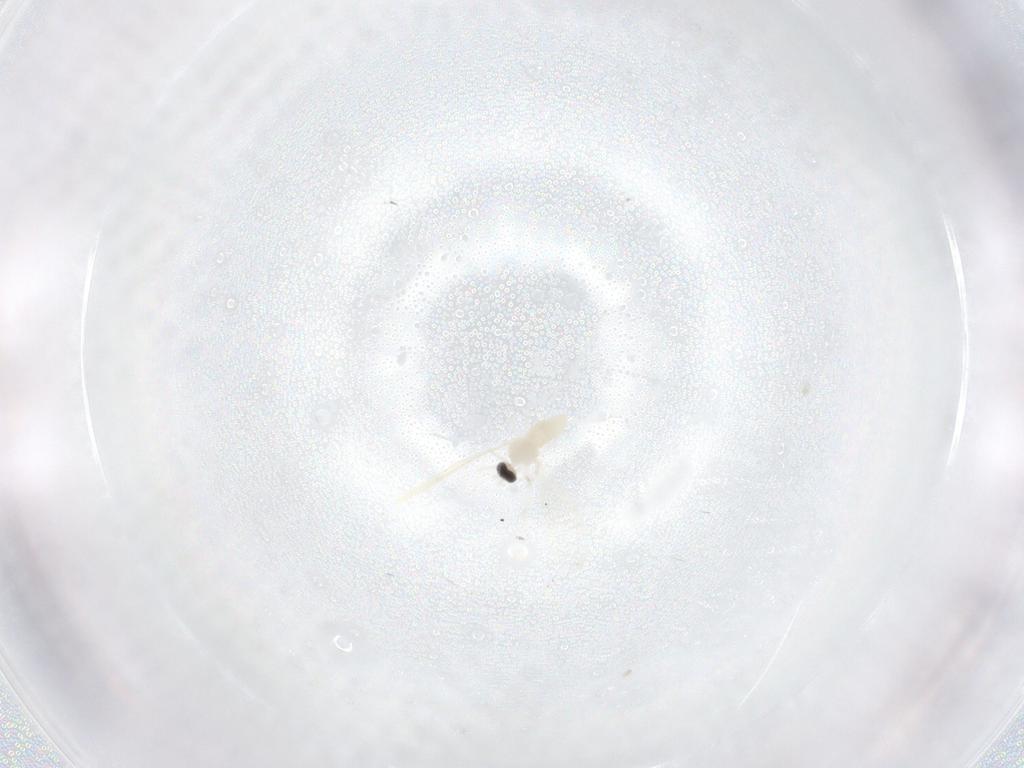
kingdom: Animalia
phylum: Arthropoda
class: Insecta
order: Diptera
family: Cecidomyiidae
